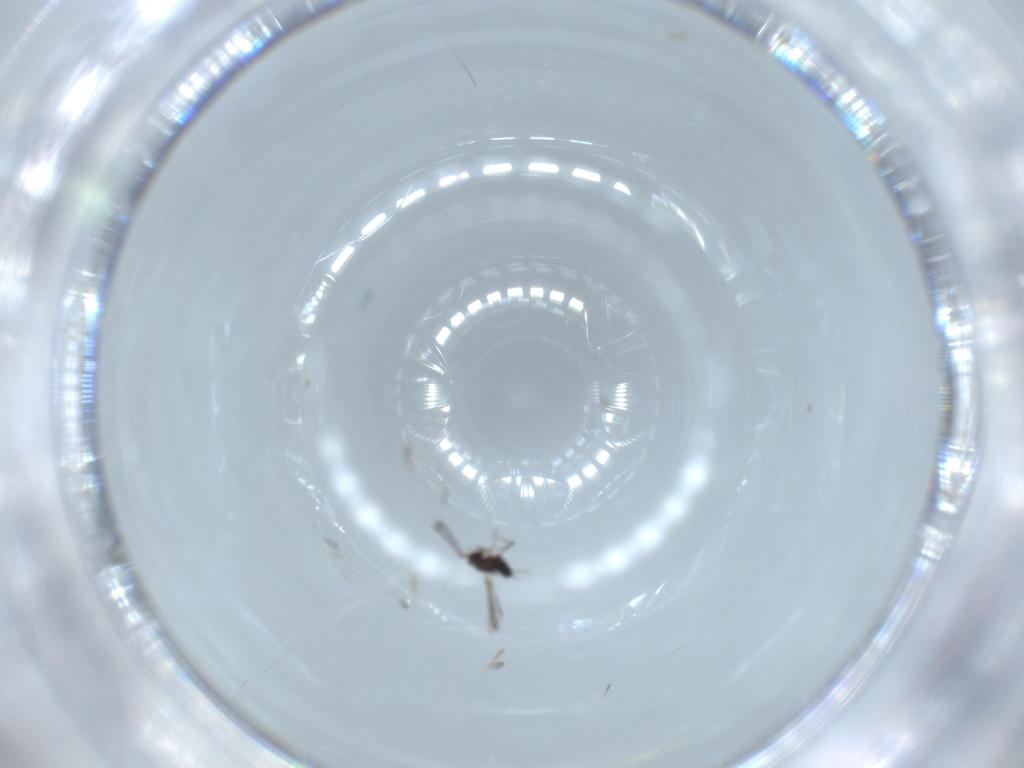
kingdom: Animalia
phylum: Arthropoda
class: Insecta
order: Hymenoptera
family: Mymaridae
